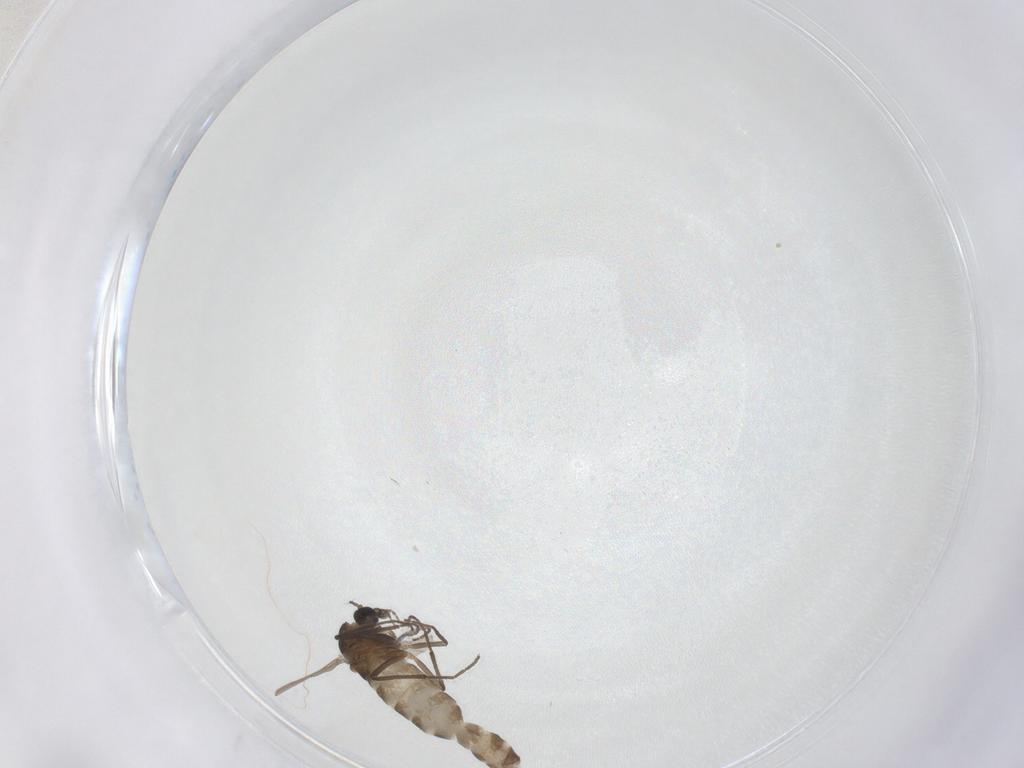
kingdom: Animalia
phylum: Arthropoda
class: Insecta
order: Diptera
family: Chironomidae
